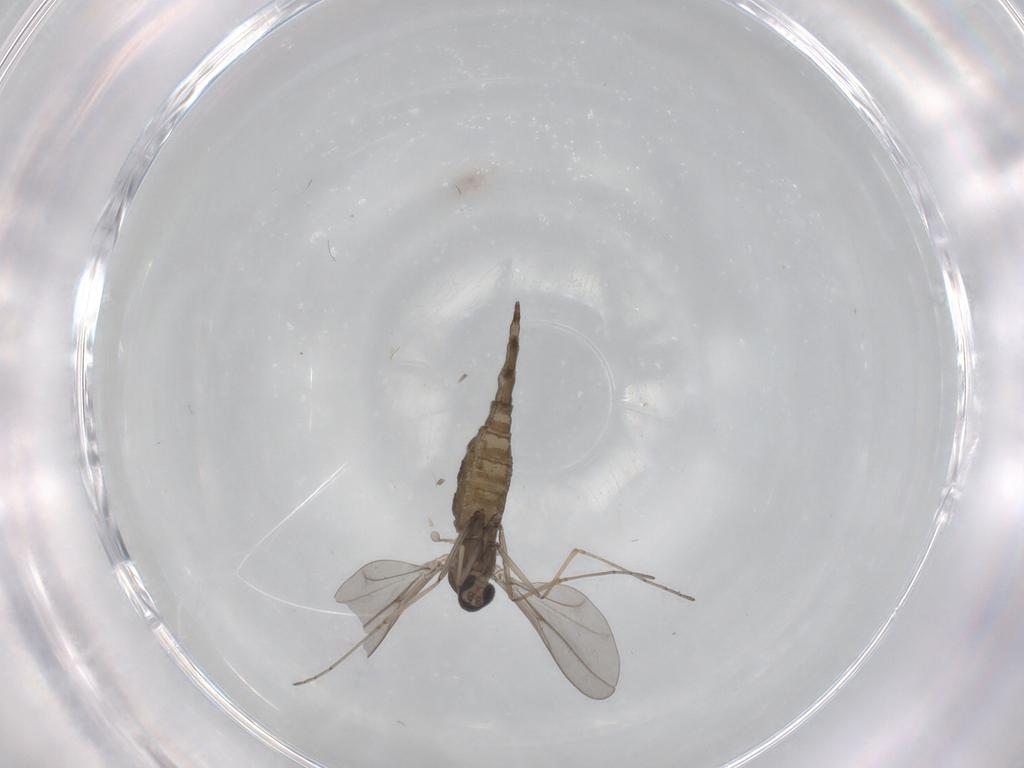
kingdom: Animalia
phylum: Arthropoda
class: Insecta
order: Diptera
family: Cecidomyiidae
